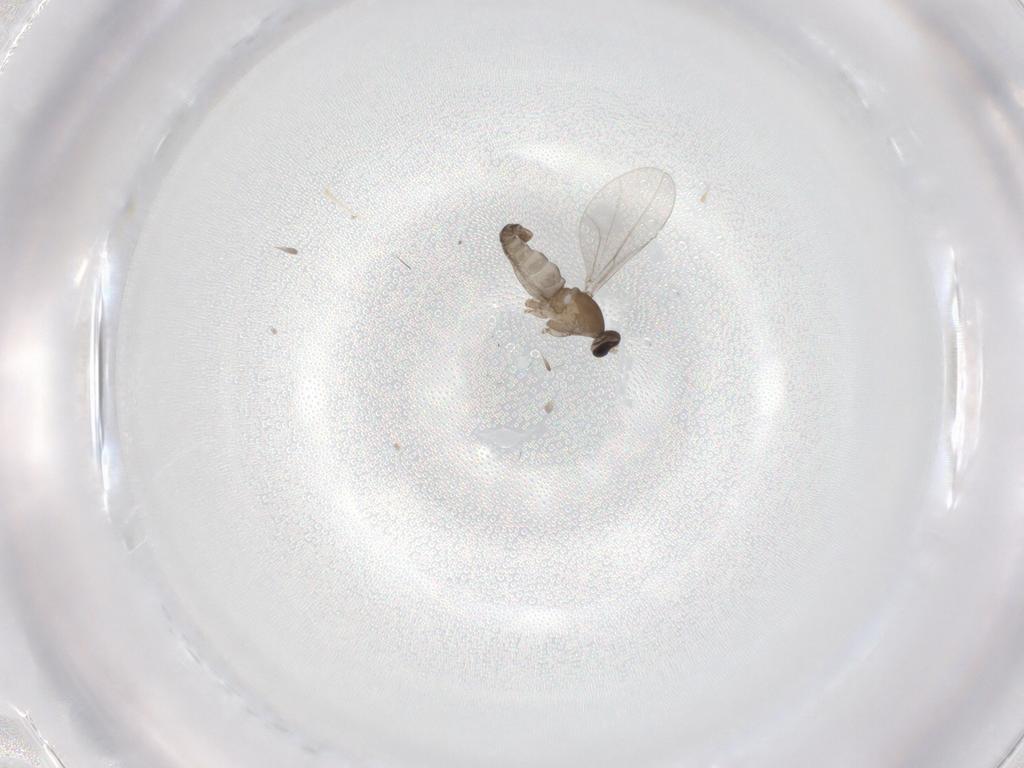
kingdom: Animalia
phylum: Arthropoda
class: Insecta
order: Diptera
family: Cecidomyiidae
